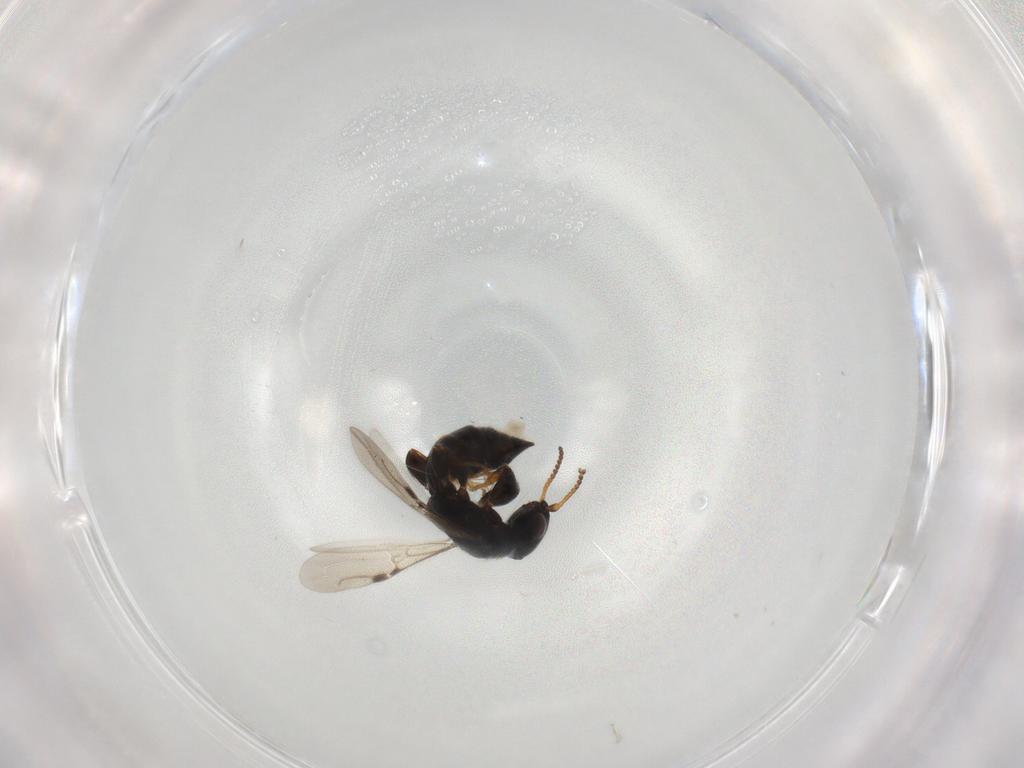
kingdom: Animalia
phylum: Arthropoda
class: Insecta
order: Hymenoptera
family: Bethylidae
